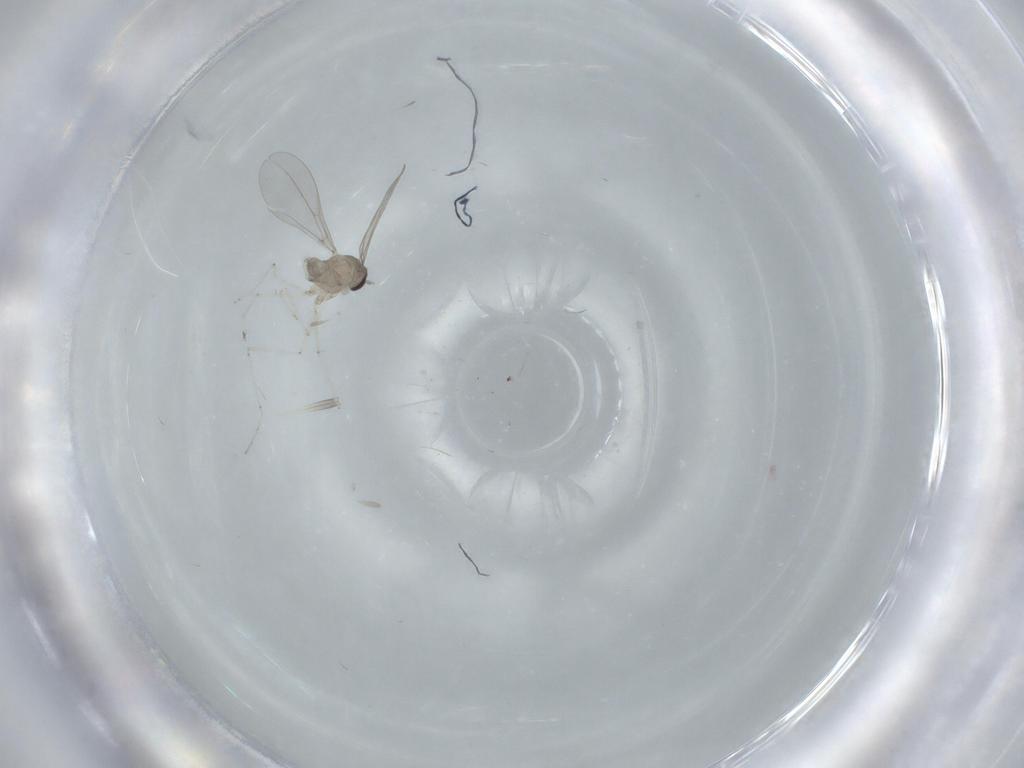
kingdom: Animalia
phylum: Arthropoda
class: Insecta
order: Diptera
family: Cecidomyiidae
